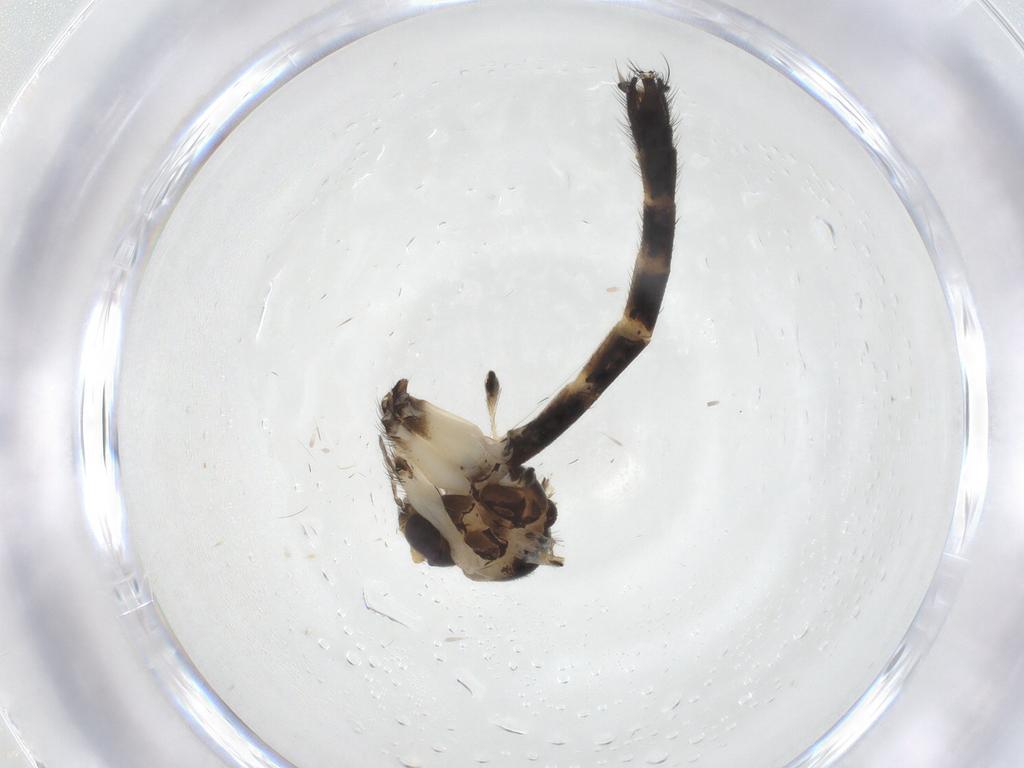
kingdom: Animalia
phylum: Arthropoda
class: Insecta
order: Diptera
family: Chironomidae
